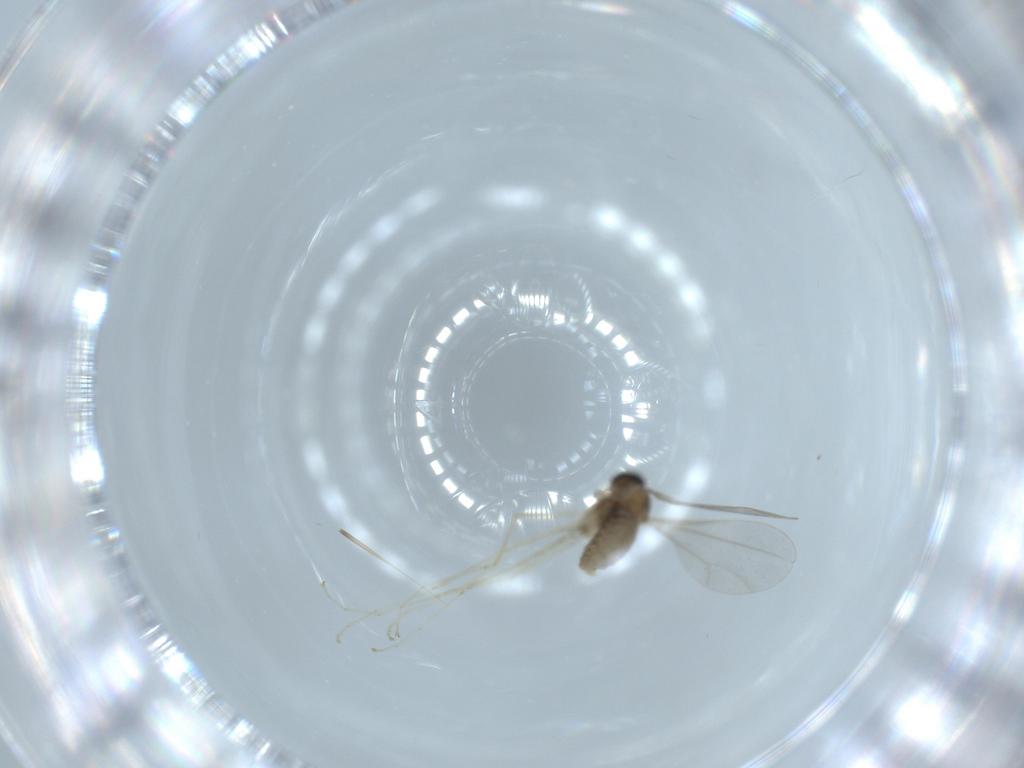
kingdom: Animalia
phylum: Arthropoda
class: Insecta
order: Diptera
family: Cecidomyiidae
